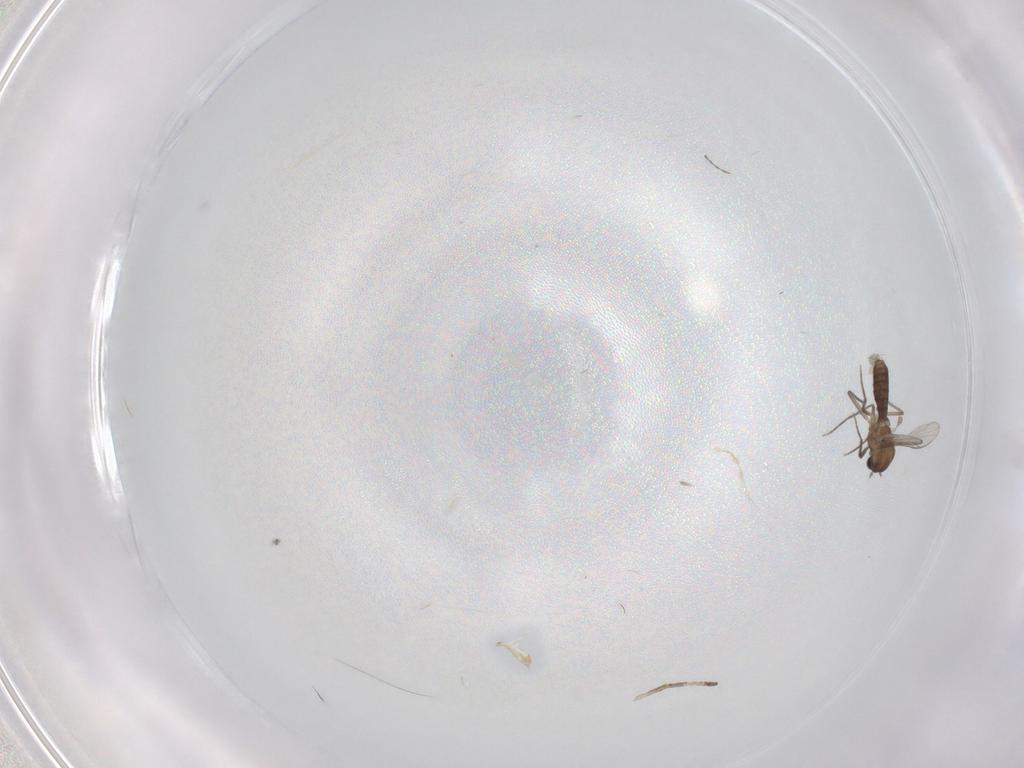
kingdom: Animalia
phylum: Arthropoda
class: Insecta
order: Diptera
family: Chironomidae
